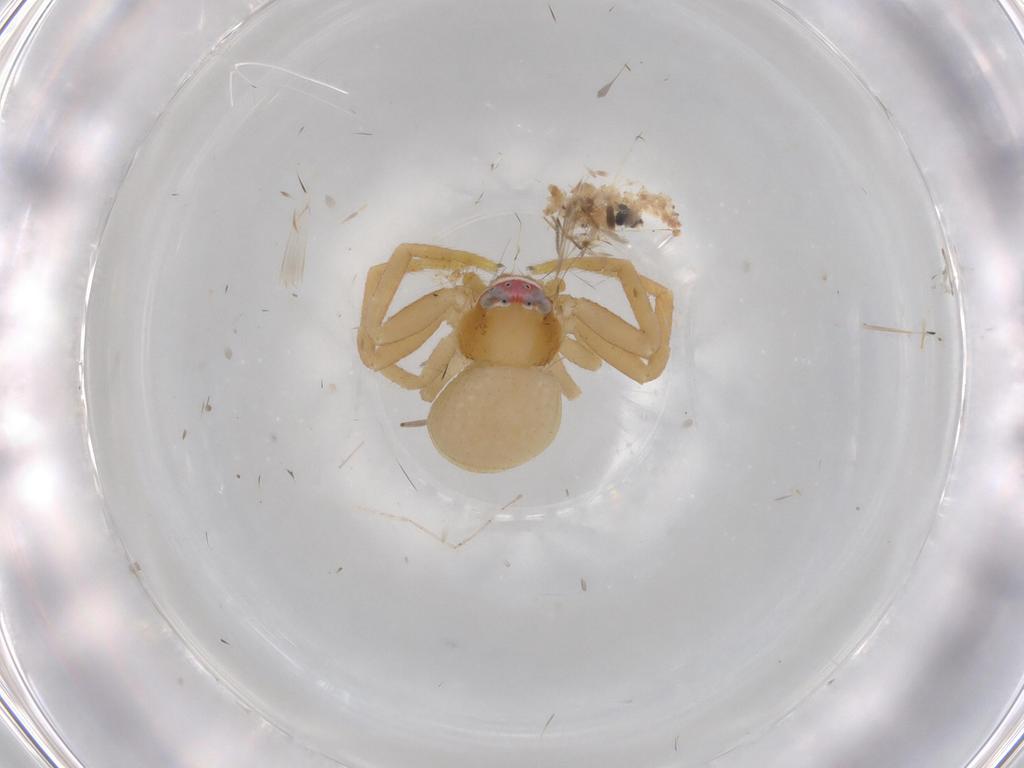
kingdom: Animalia
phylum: Arthropoda
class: Arachnida
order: Araneae
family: Thomisidae
